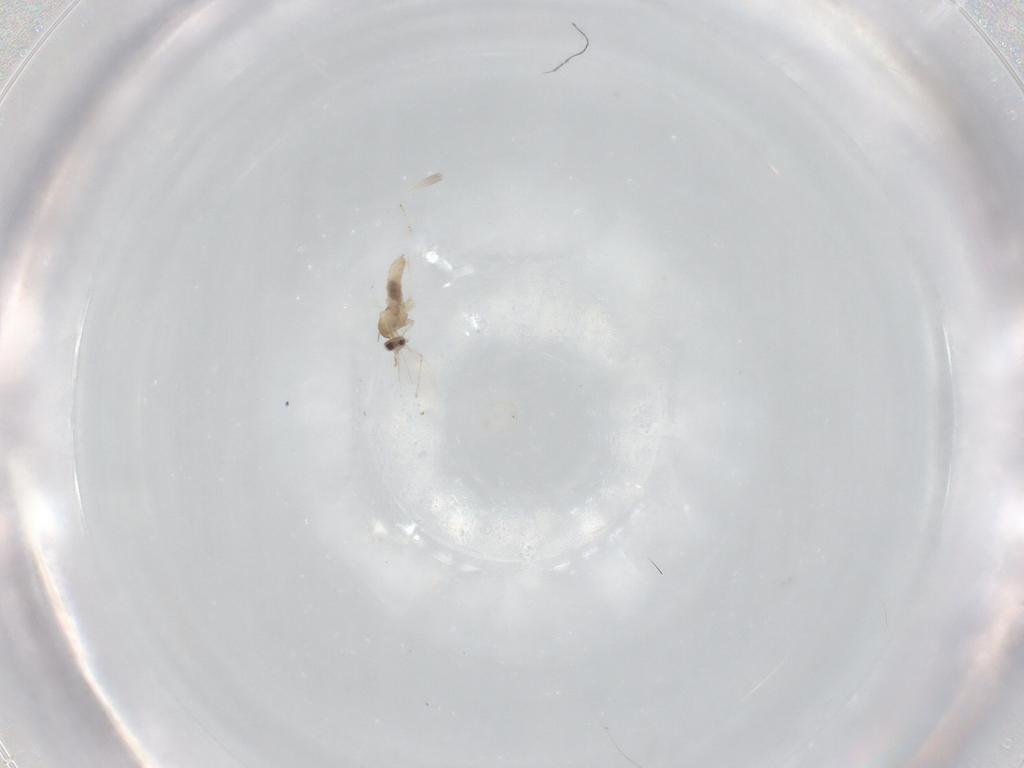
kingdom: Animalia
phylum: Arthropoda
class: Insecta
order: Diptera
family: Cecidomyiidae
